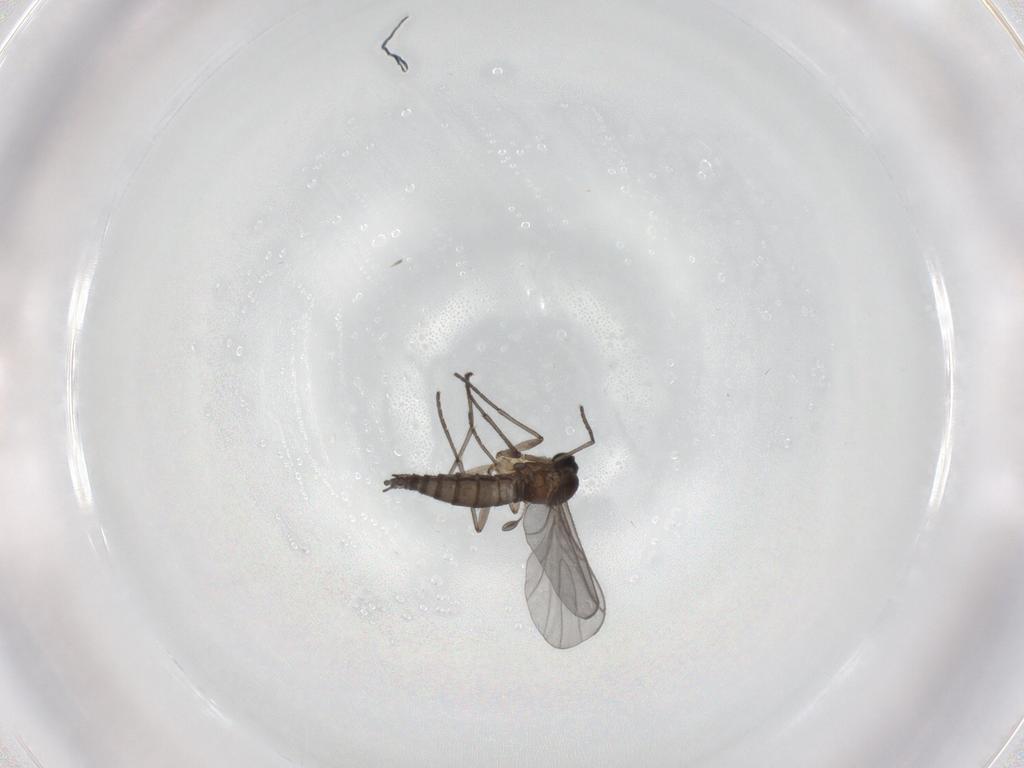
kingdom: Animalia
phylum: Arthropoda
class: Insecta
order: Diptera
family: Sciaridae
